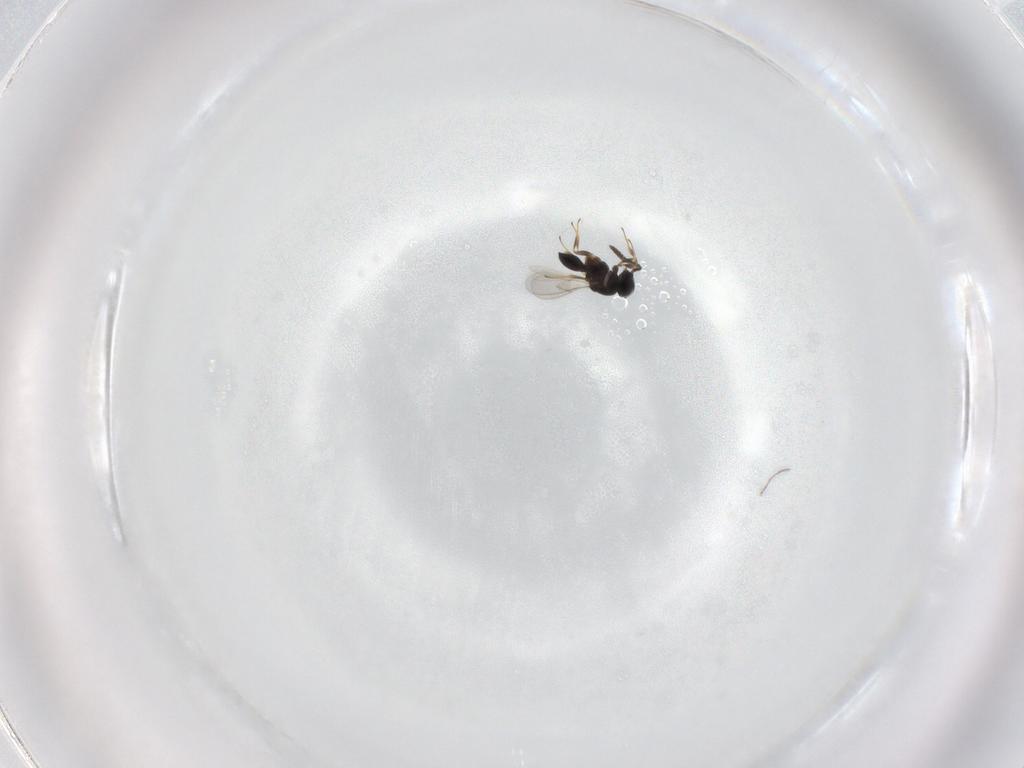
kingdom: Animalia
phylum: Arthropoda
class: Insecta
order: Hymenoptera
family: Scelionidae
